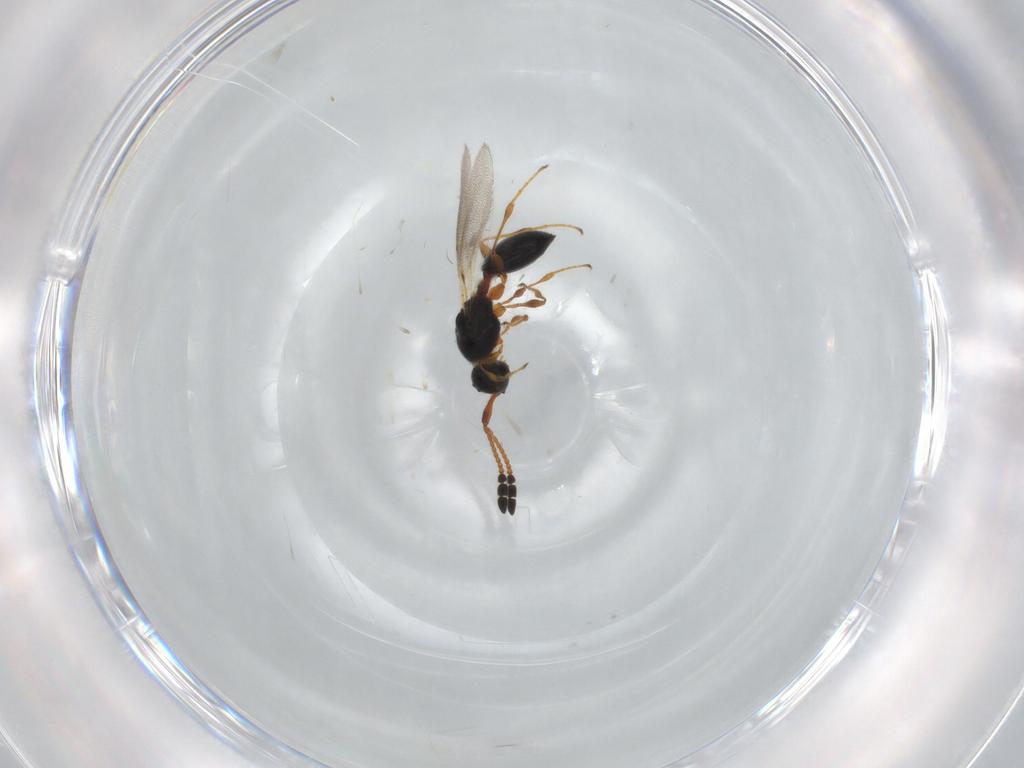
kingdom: Animalia
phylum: Arthropoda
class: Insecta
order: Hymenoptera
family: Diapriidae
